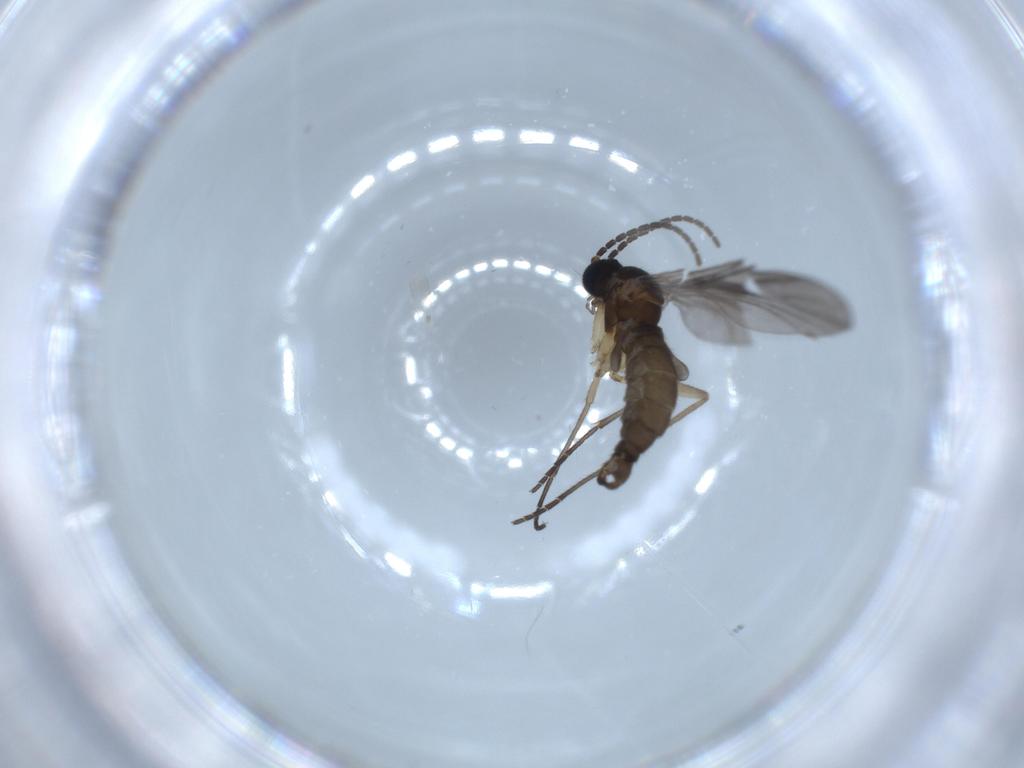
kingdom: Animalia
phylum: Arthropoda
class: Insecta
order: Diptera
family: Sciaridae
